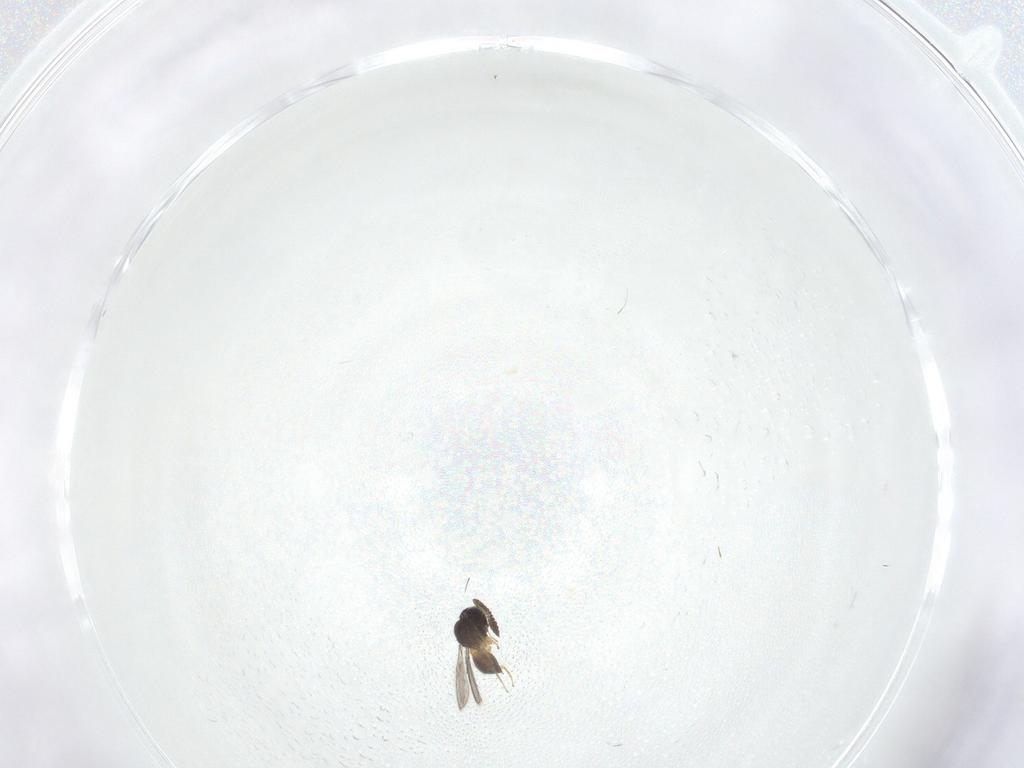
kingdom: Animalia
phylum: Arthropoda
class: Insecta
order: Hymenoptera
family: Scelionidae
